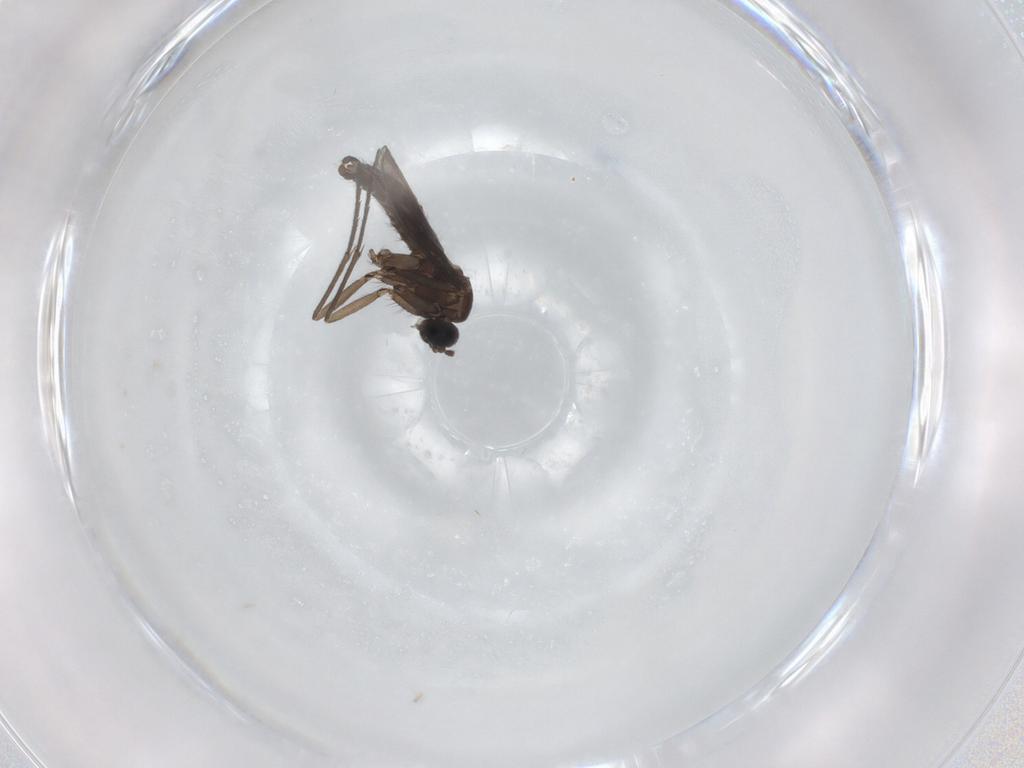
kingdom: Animalia
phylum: Arthropoda
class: Insecta
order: Diptera
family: Sciaridae
